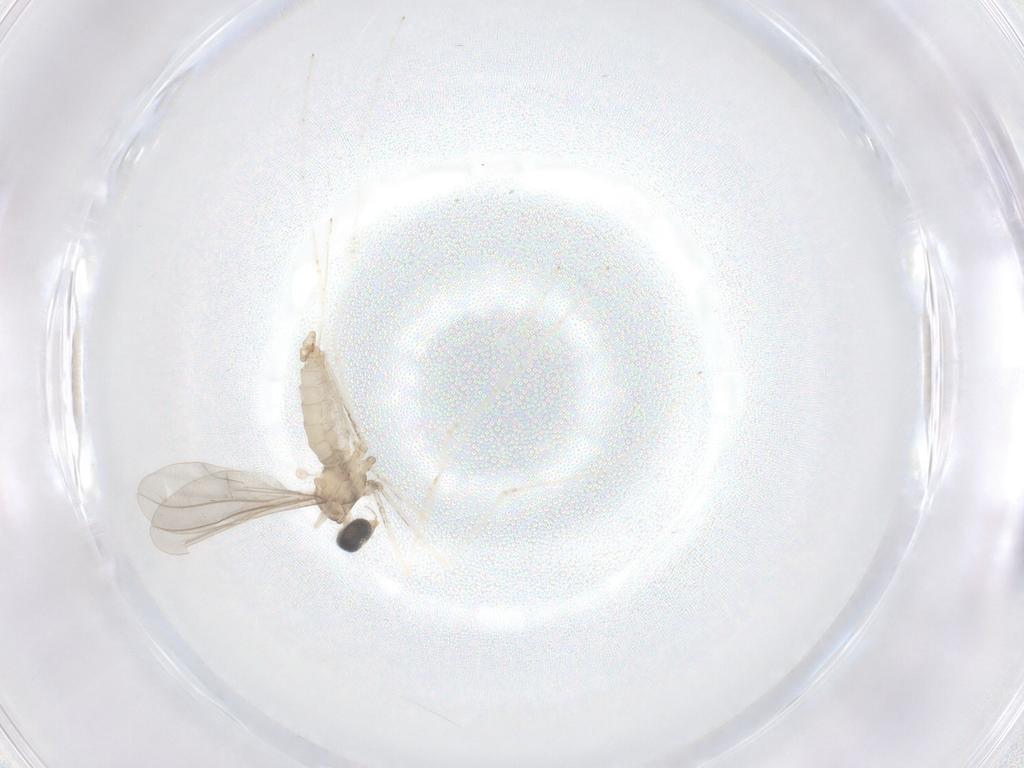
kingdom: Animalia
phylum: Arthropoda
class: Insecta
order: Diptera
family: Cecidomyiidae
